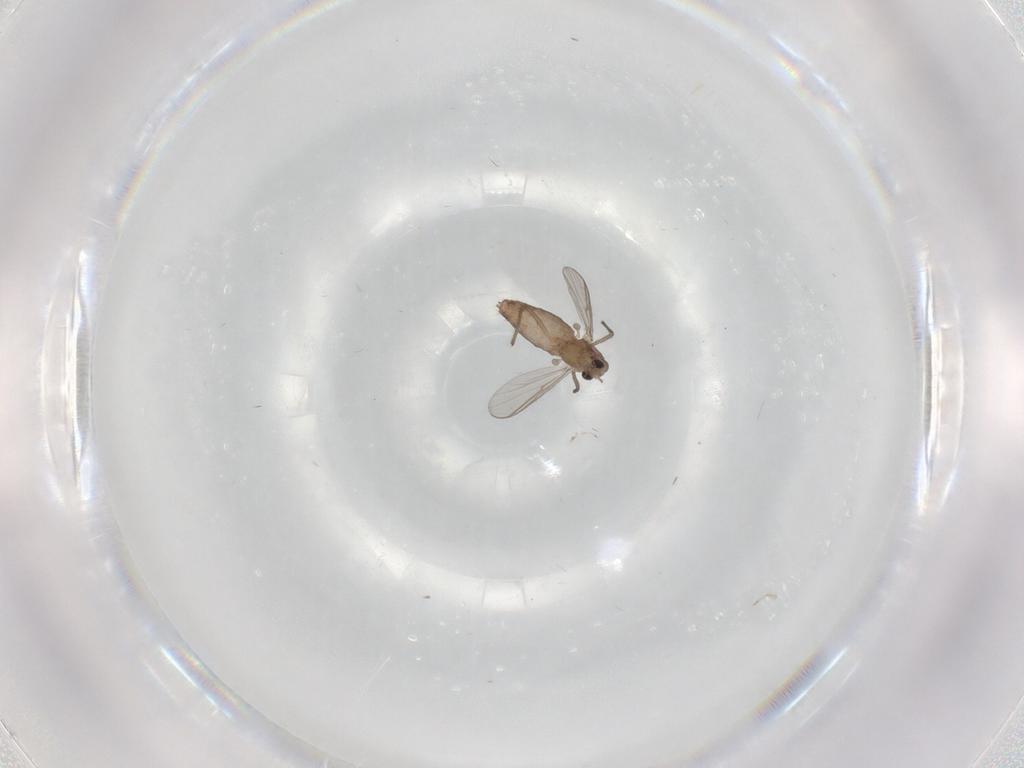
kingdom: Animalia
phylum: Arthropoda
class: Insecta
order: Diptera
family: Chironomidae
